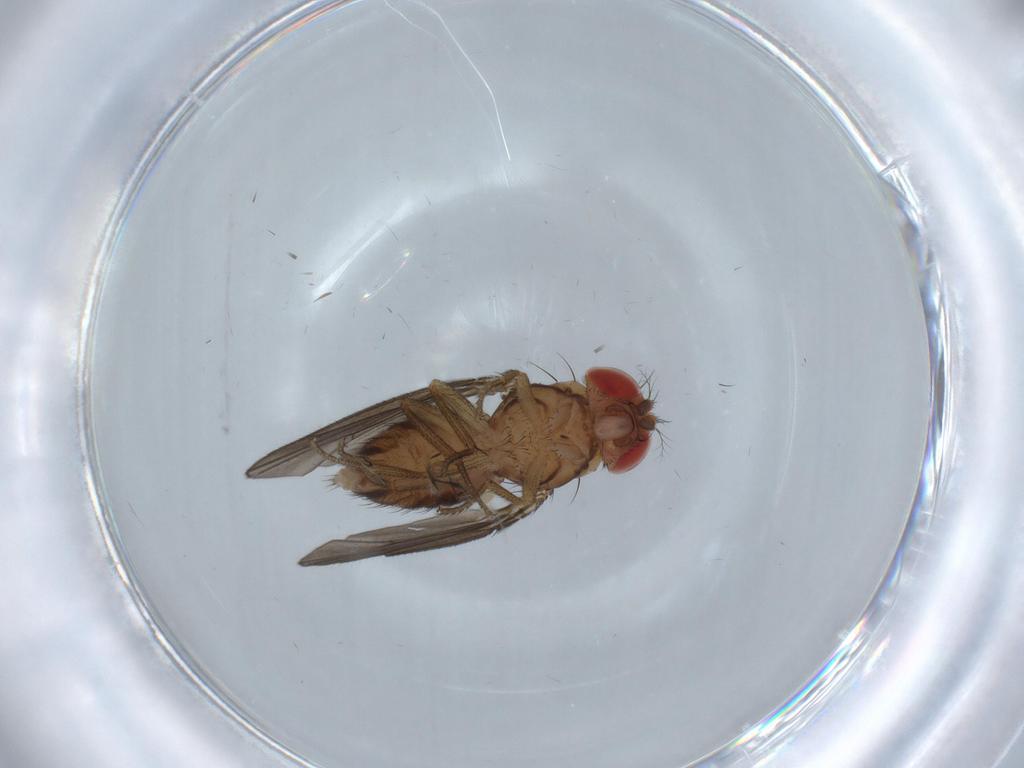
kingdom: Animalia
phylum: Arthropoda
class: Insecta
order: Diptera
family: Drosophilidae
